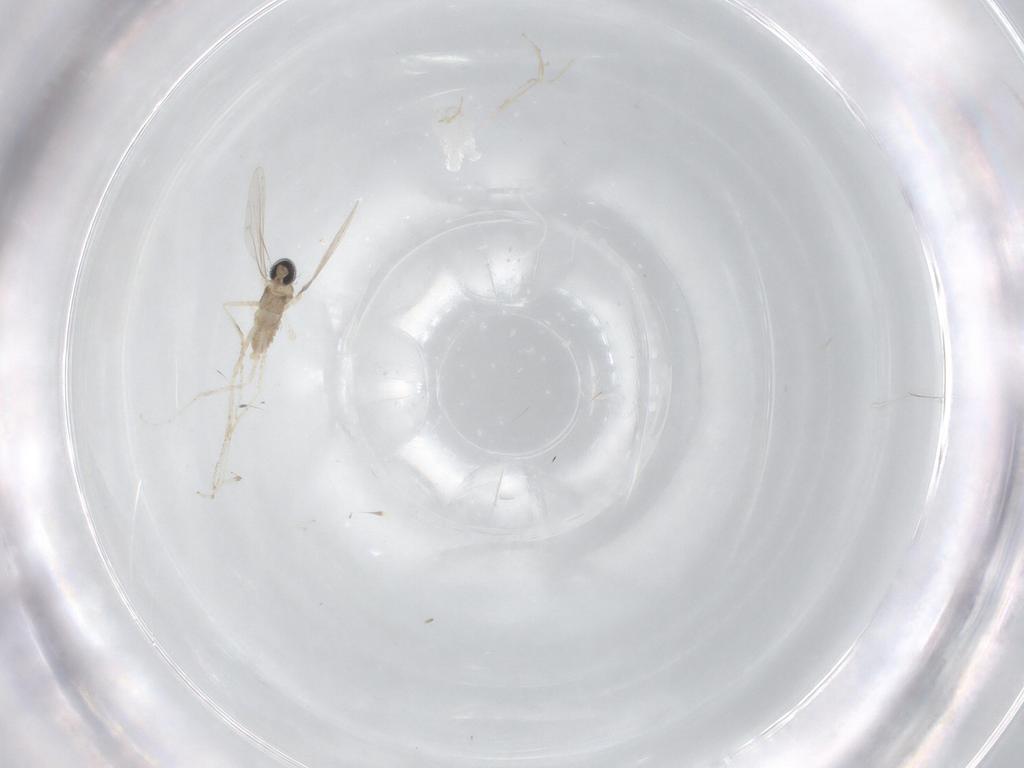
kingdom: Animalia
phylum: Arthropoda
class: Insecta
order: Diptera
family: Cecidomyiidae
